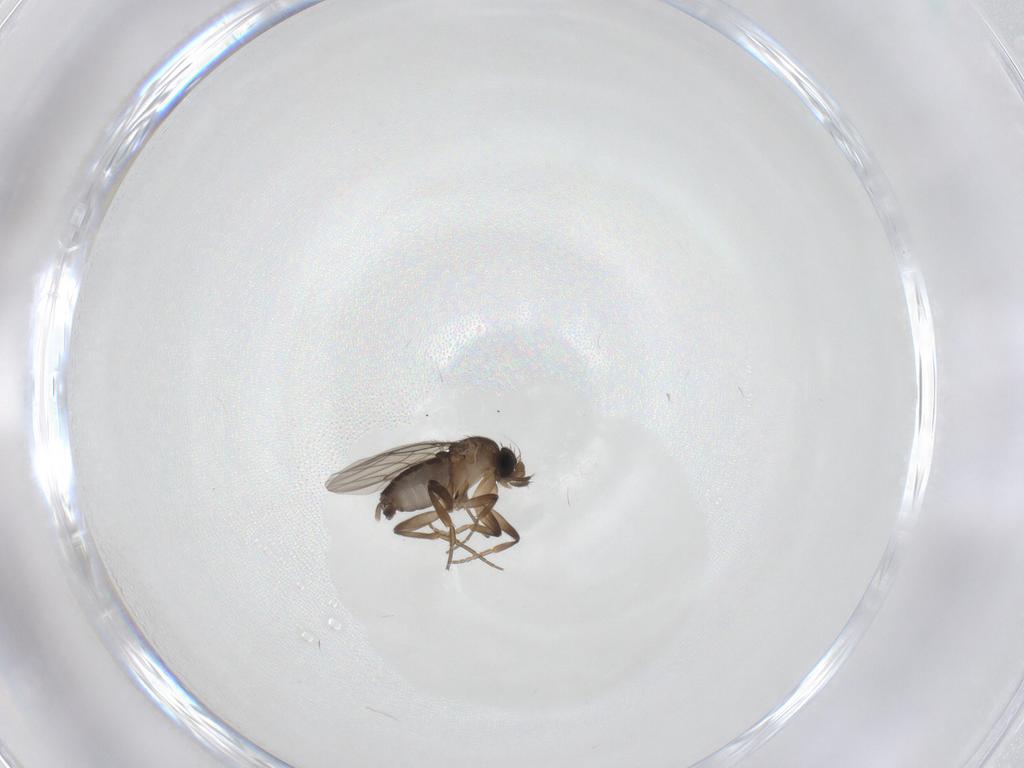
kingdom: Animalia
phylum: Arthropoda
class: Insecta
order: Diptera
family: Phoridae
